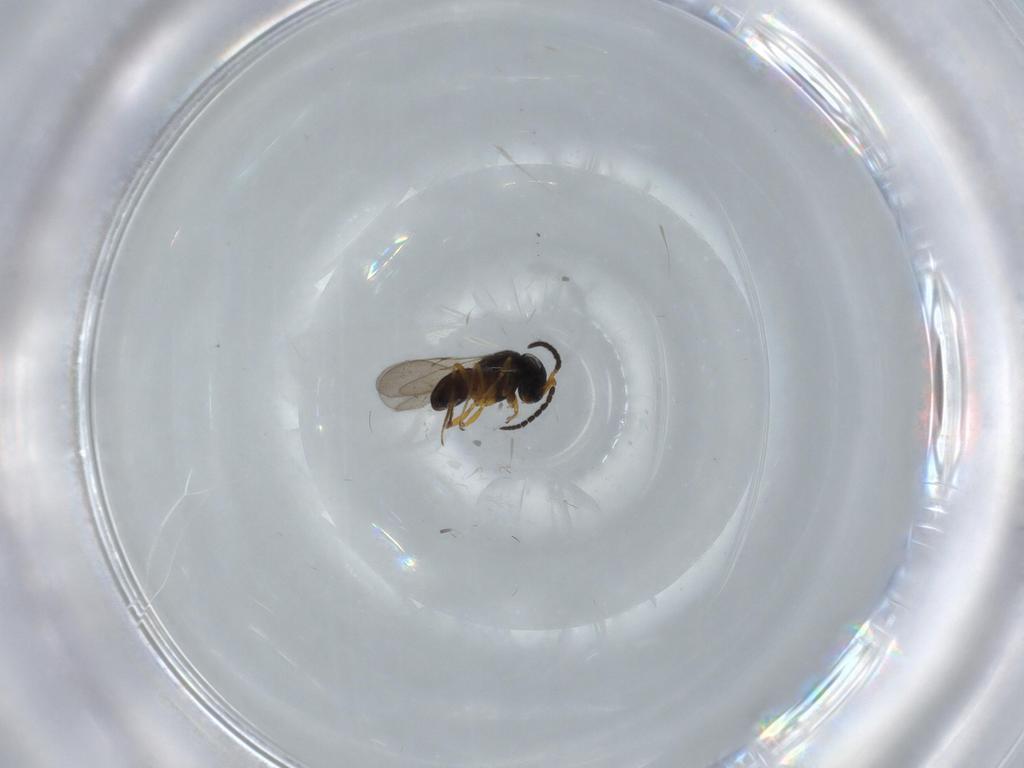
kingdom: Animalia
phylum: Arthropoda
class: Insecta
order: Coleoptera
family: Curculionidae
